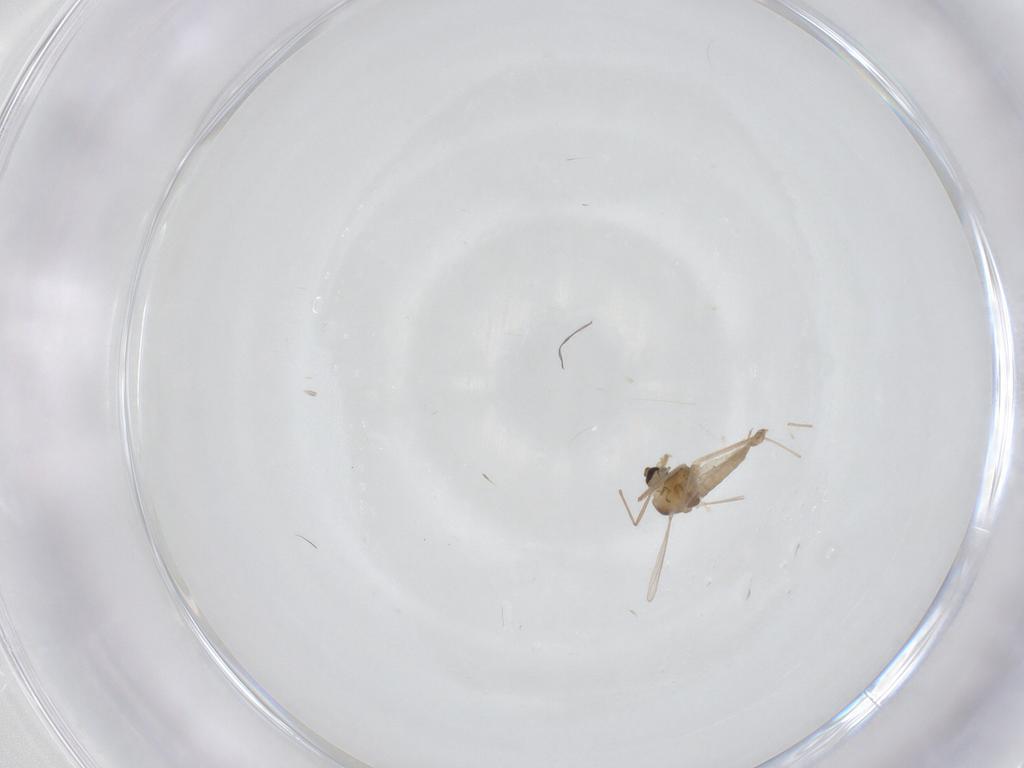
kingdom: Animalia
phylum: Arthropoda
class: Insecta
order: Diptera
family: Chironomidae
